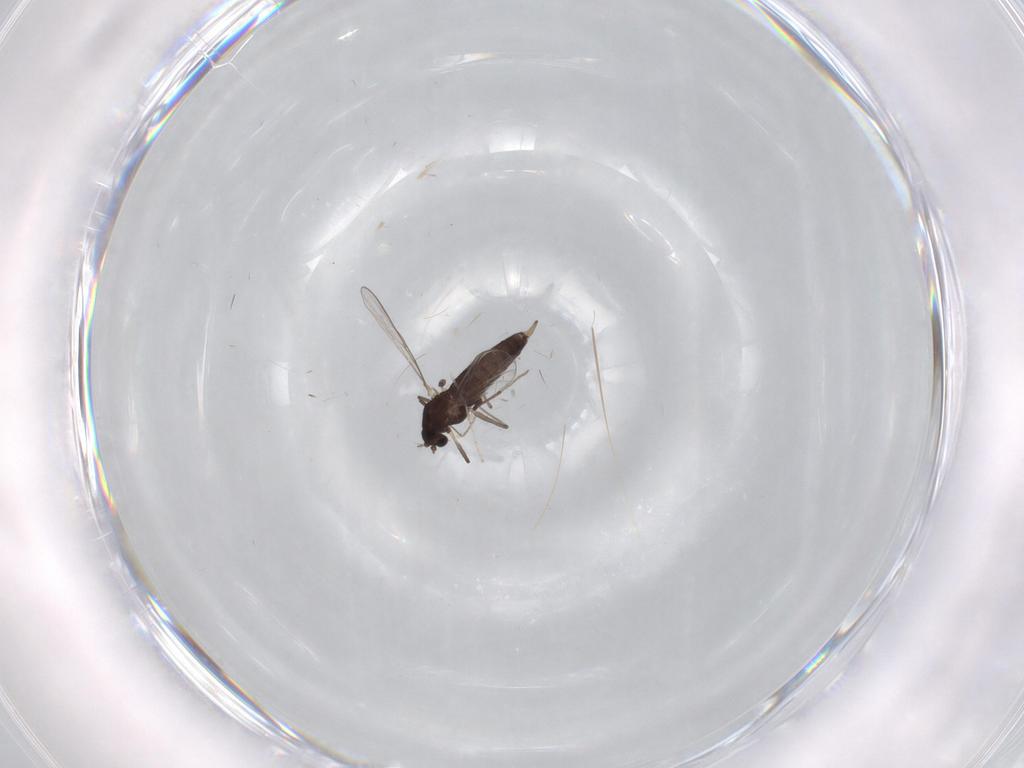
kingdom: Animalia
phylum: Arthropoda
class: Insecta
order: Diptera
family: Chironomidae
